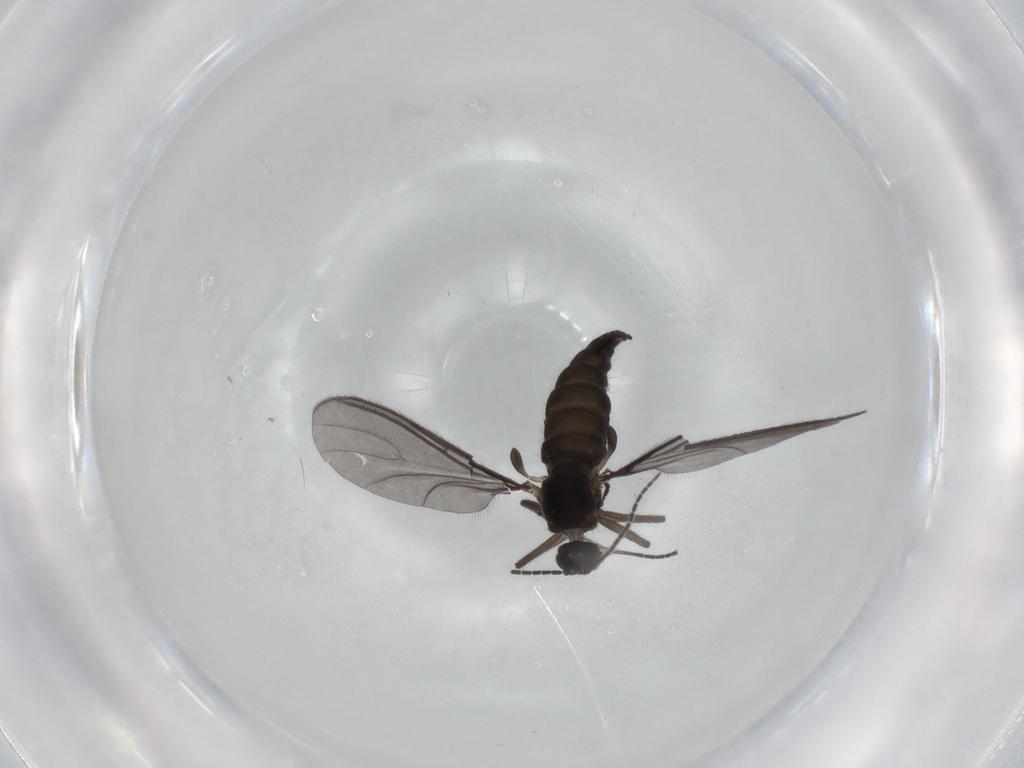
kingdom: Animalia
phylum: Arthropoda
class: Insecta
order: Diptera
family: Sciaridae
